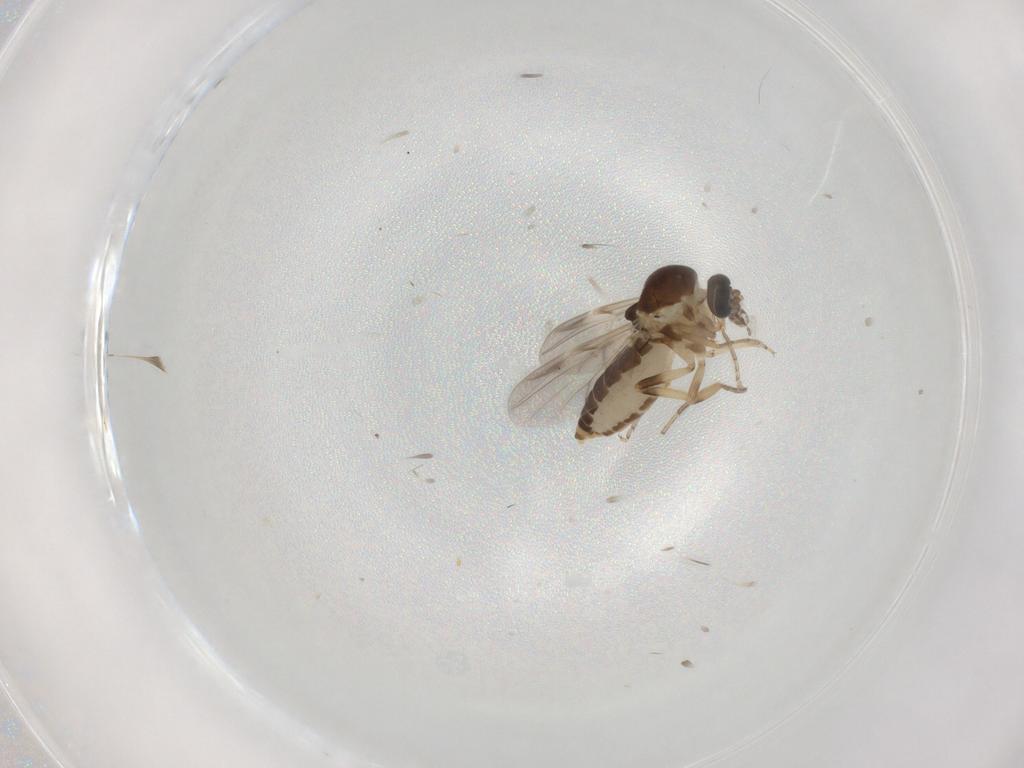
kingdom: Animalia
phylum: Arthropoda
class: Insecta
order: Diptera
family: Ceratopogonidae
